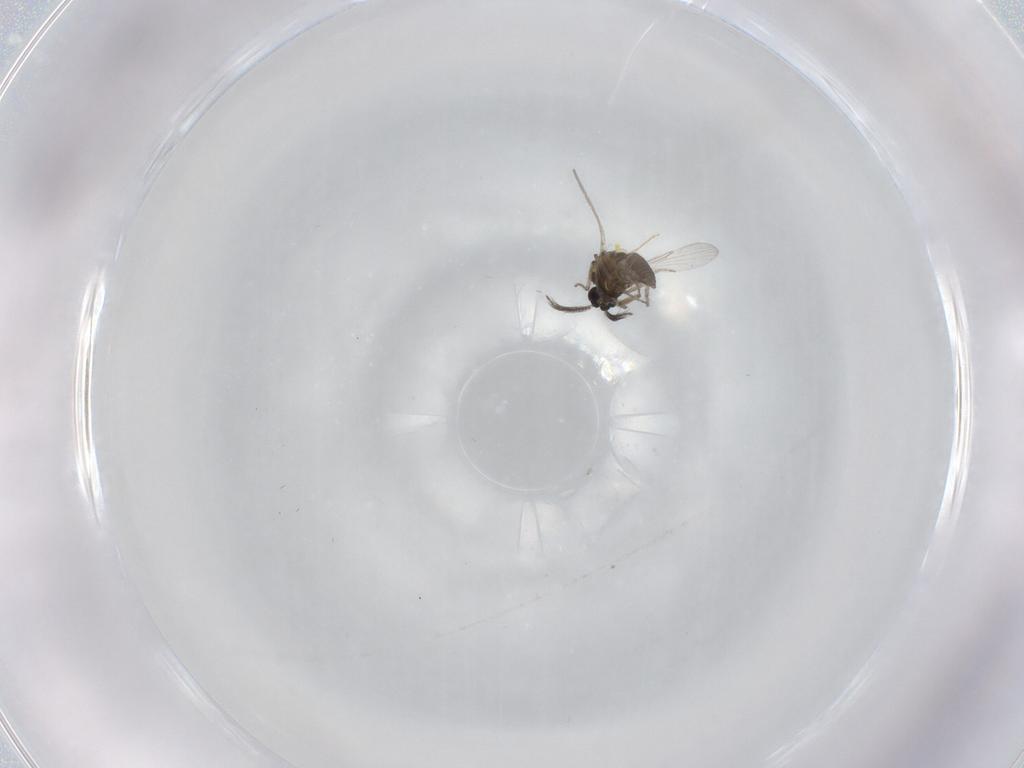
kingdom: Animalia
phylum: Arthropoda
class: Insecta
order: Diptera
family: Ceratopogonidae
